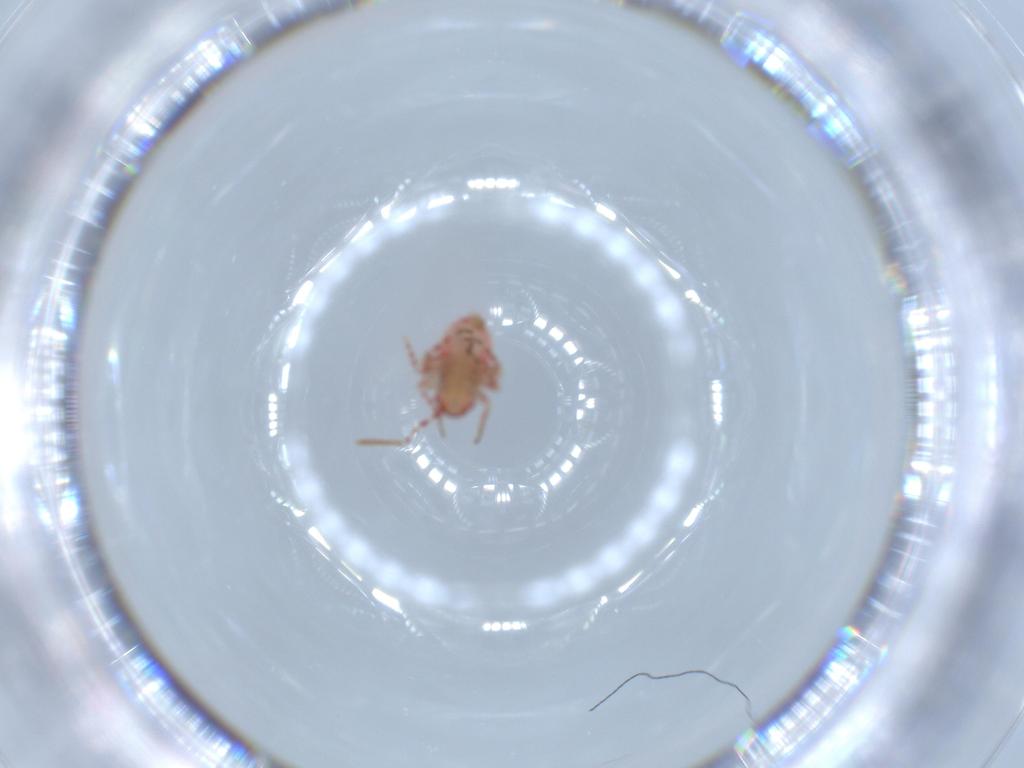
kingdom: Animalia
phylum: Arthropoda
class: Insecta
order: Hemiptera
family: Miridae
